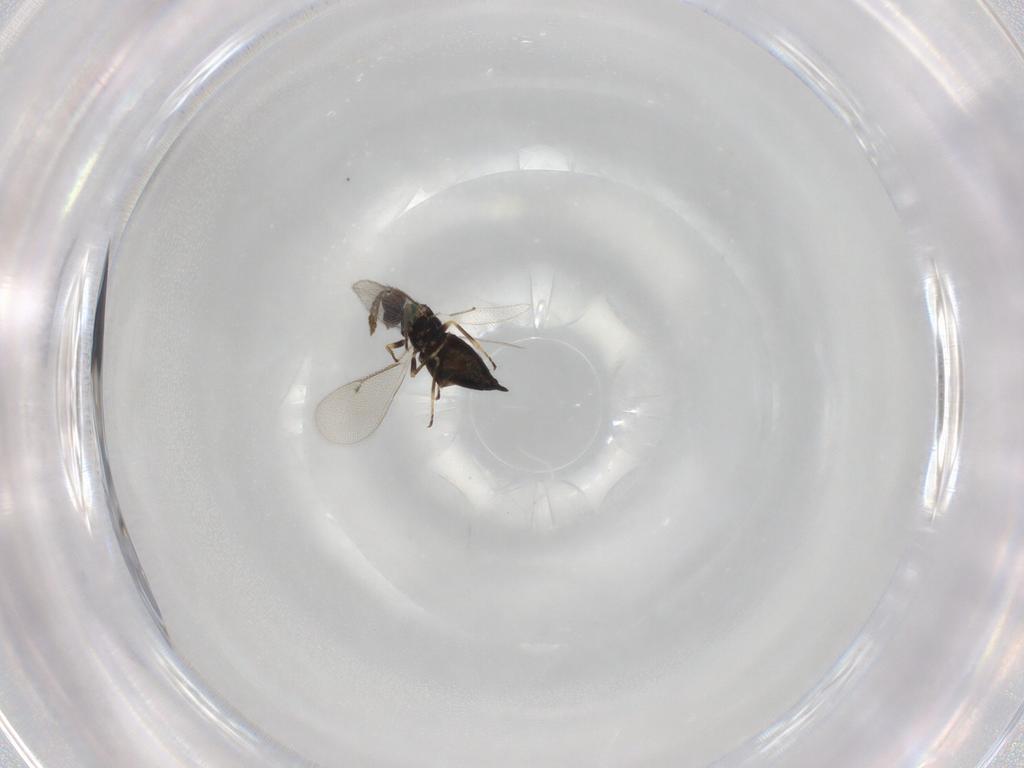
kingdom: Animalia
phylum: Arthropoda
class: Insecta
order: Hymenoptera
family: Eulophidae
